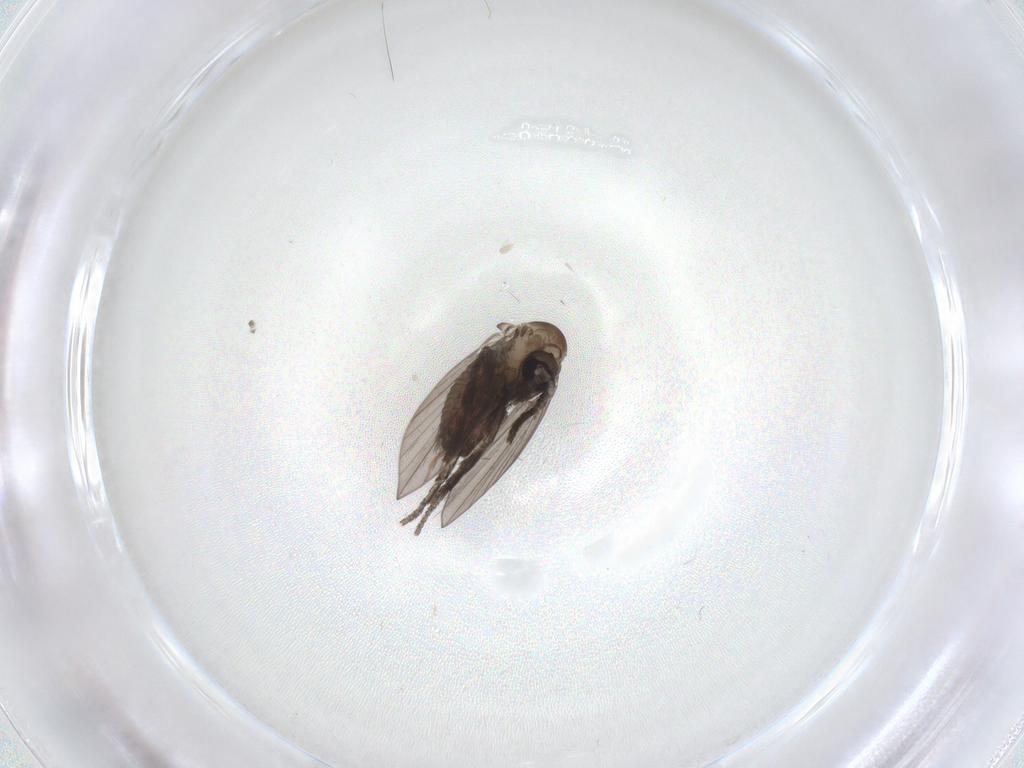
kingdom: Animalia
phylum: Arthropoda
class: Insecta
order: Diptera
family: Psychodidae
